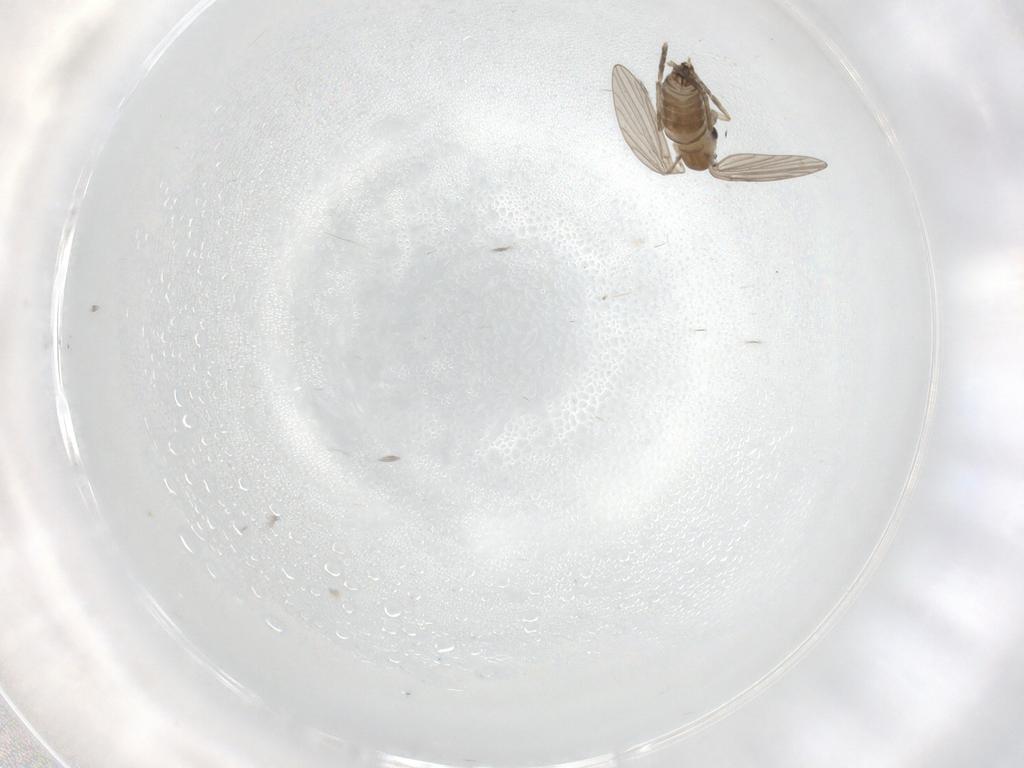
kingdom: Animalia
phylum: Arthropoda
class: Insecta
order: Diptera
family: Psychodidae
